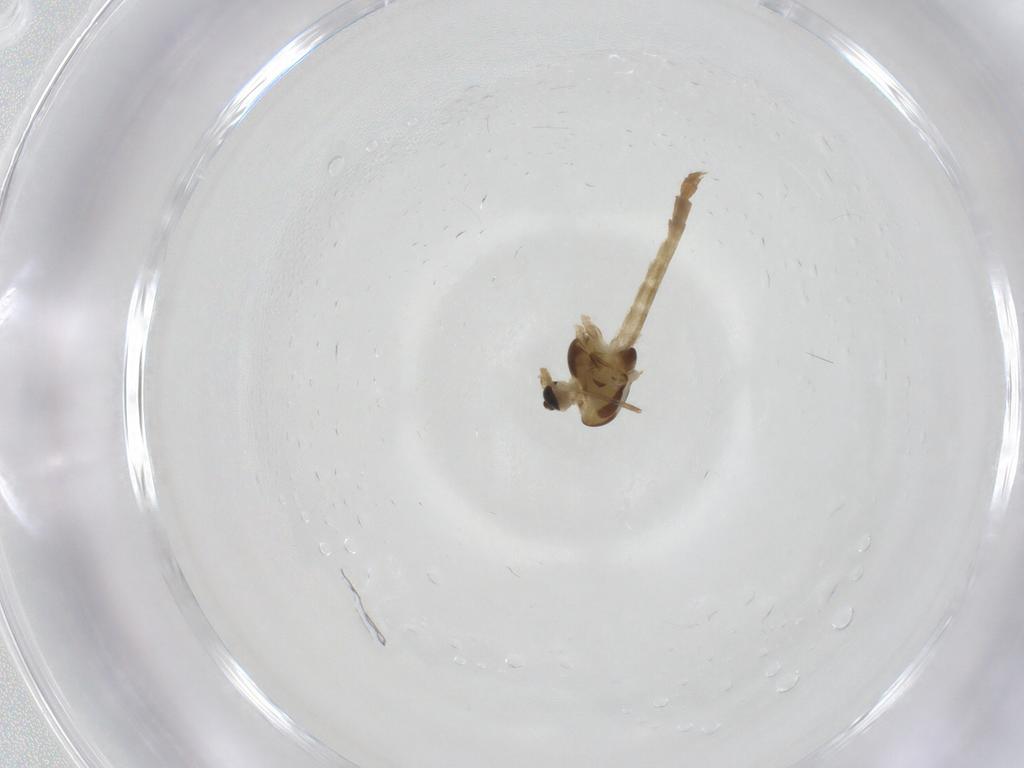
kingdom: Animalia
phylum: Arthropoda
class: Insecta
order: Diptera
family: Chironomidae
